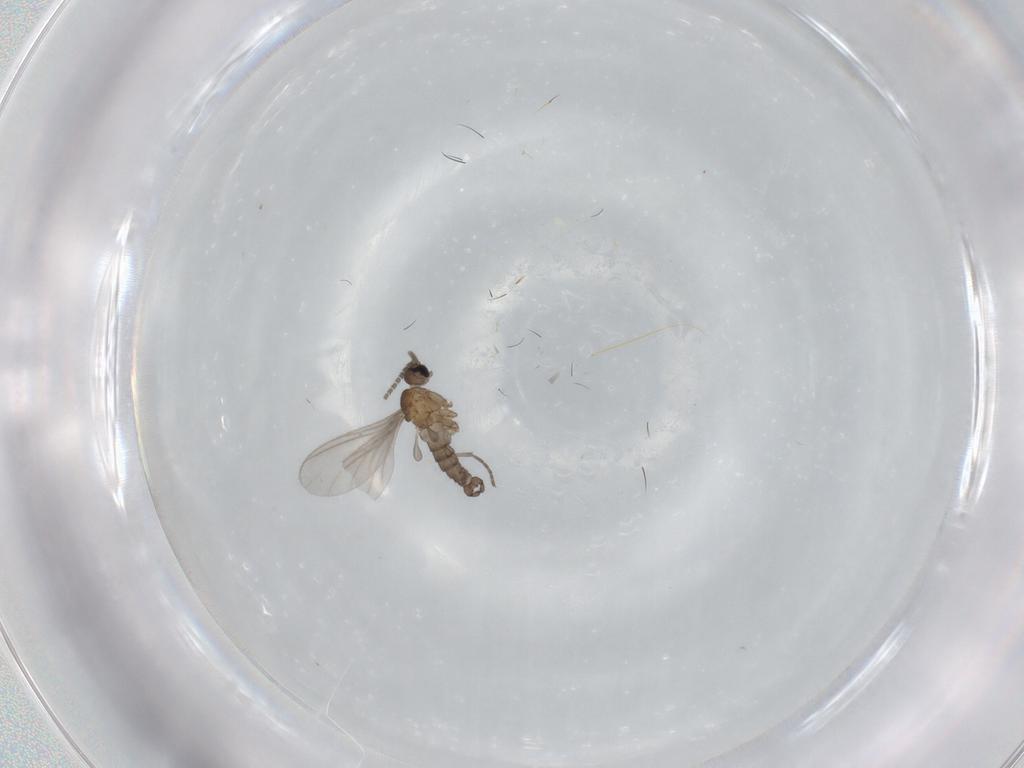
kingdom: Animalia
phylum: Arthropoda
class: Insecta
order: Diptera
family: Sciaridae
